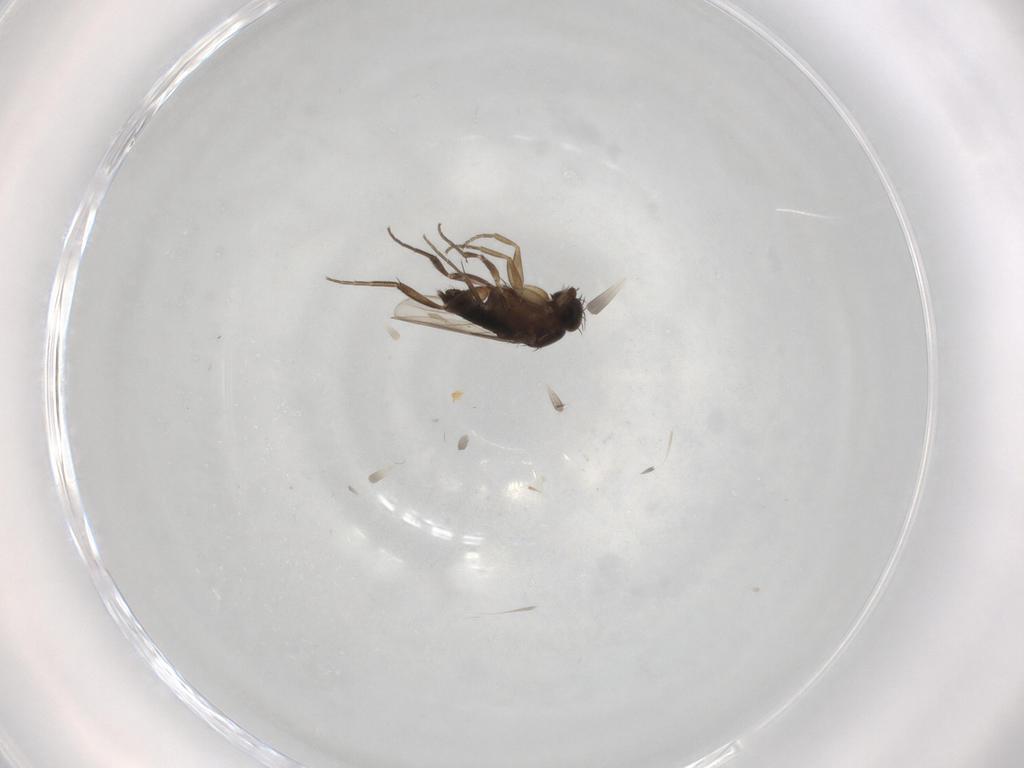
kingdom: Animalia
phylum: Arthropoda
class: Insecta
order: Diptera
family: Phoridae
